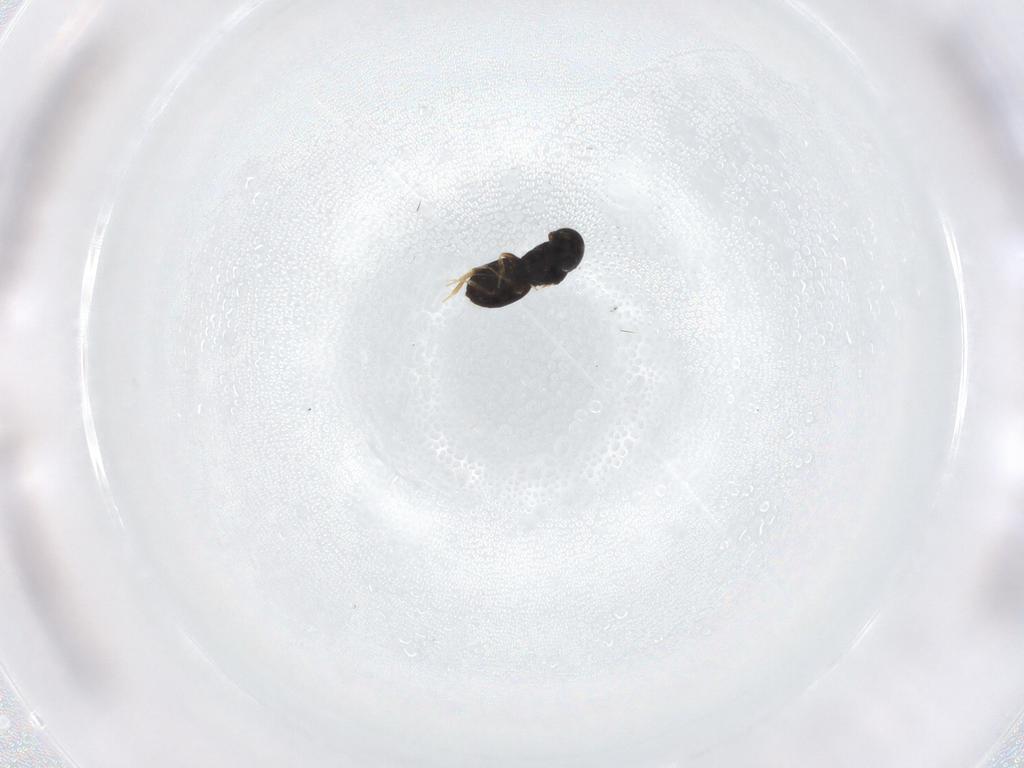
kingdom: Animalia
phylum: Arthropoda
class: Insecta
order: Hymenoptera
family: Scelionidae
